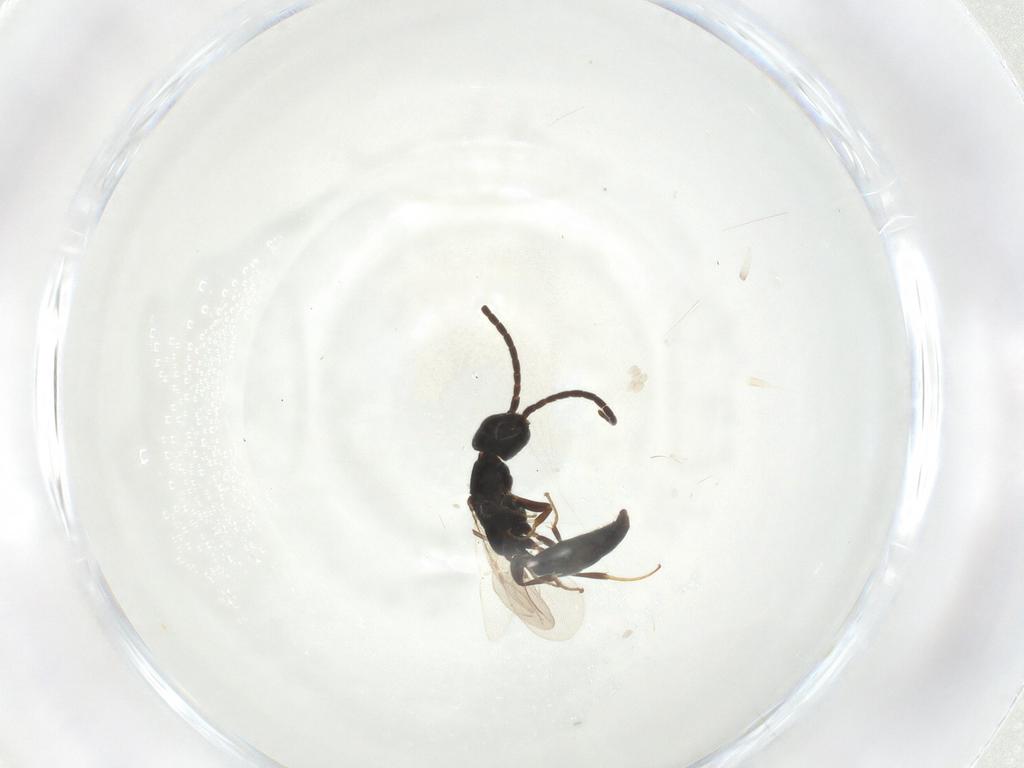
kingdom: Animalia
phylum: Arthropoda
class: Insecta
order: Hymenoptera
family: Bethylidae
